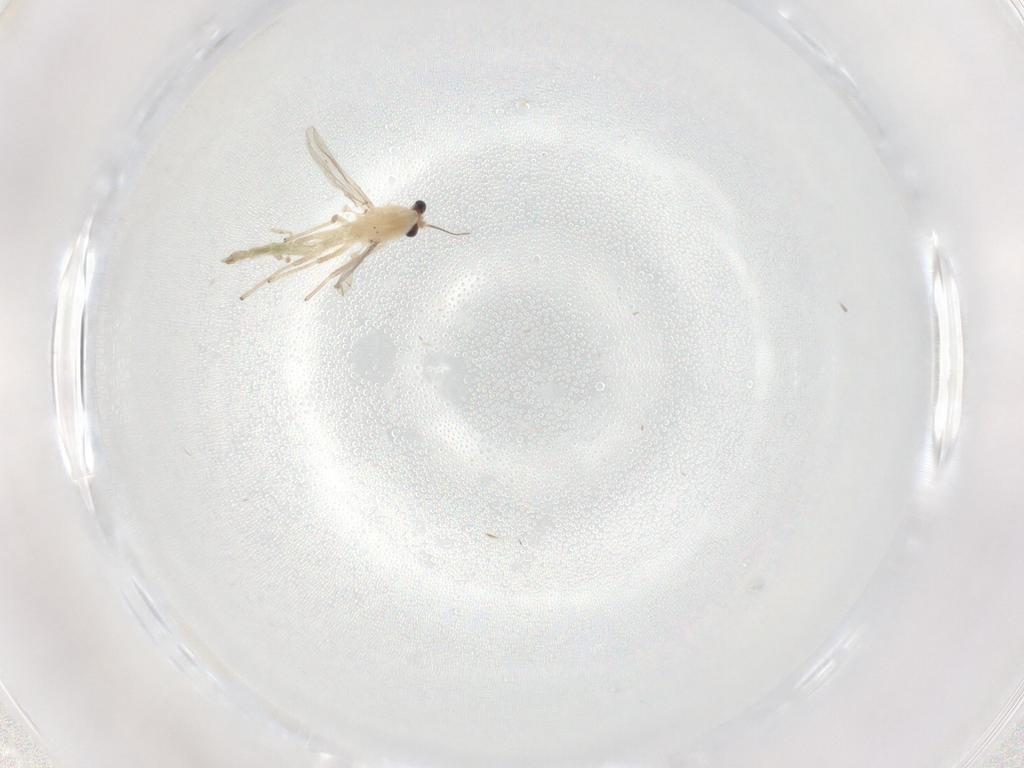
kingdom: Animalia
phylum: Arthropoda
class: Insecta
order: Diptera
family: Chironomidae
